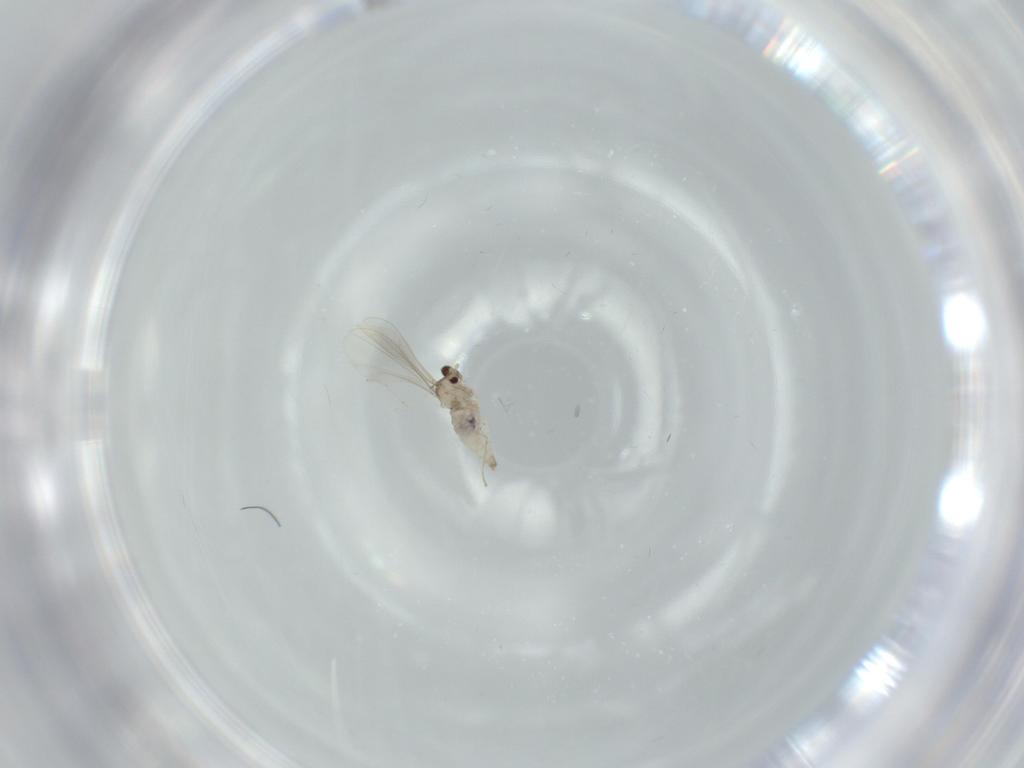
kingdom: Animalia
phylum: Arthropoda
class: Insecta
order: Diptera
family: Cecidomyiidae
